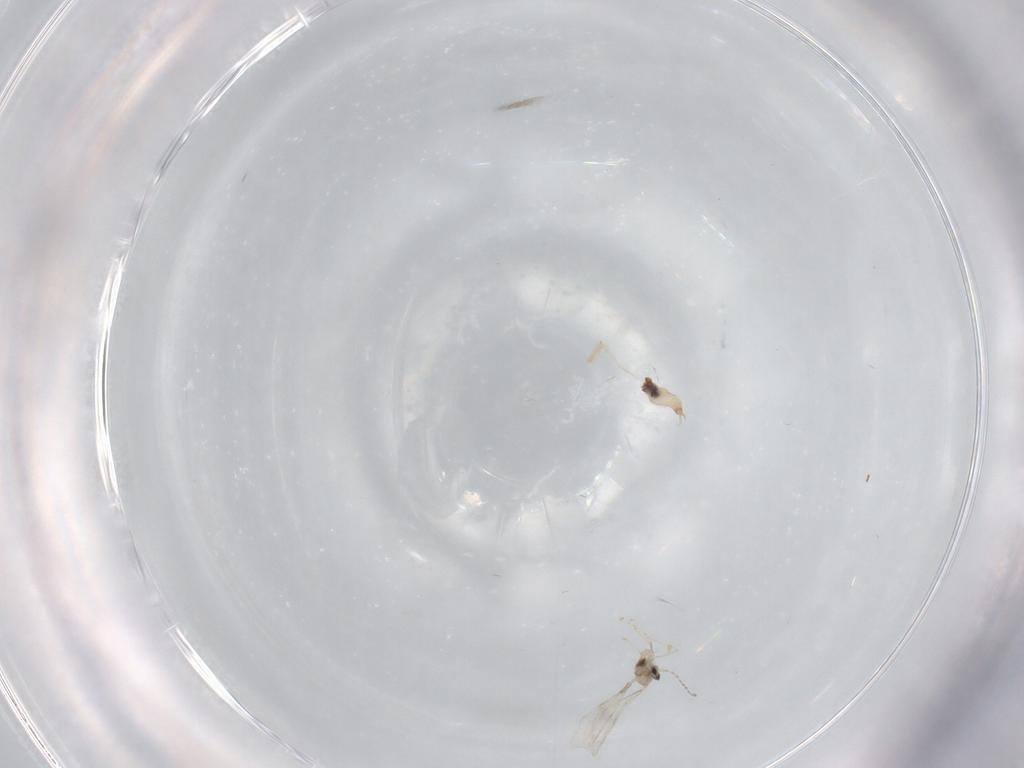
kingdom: Animalia
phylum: Arthropoda
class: Insecta
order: Diptera
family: Cecidomyiidae
